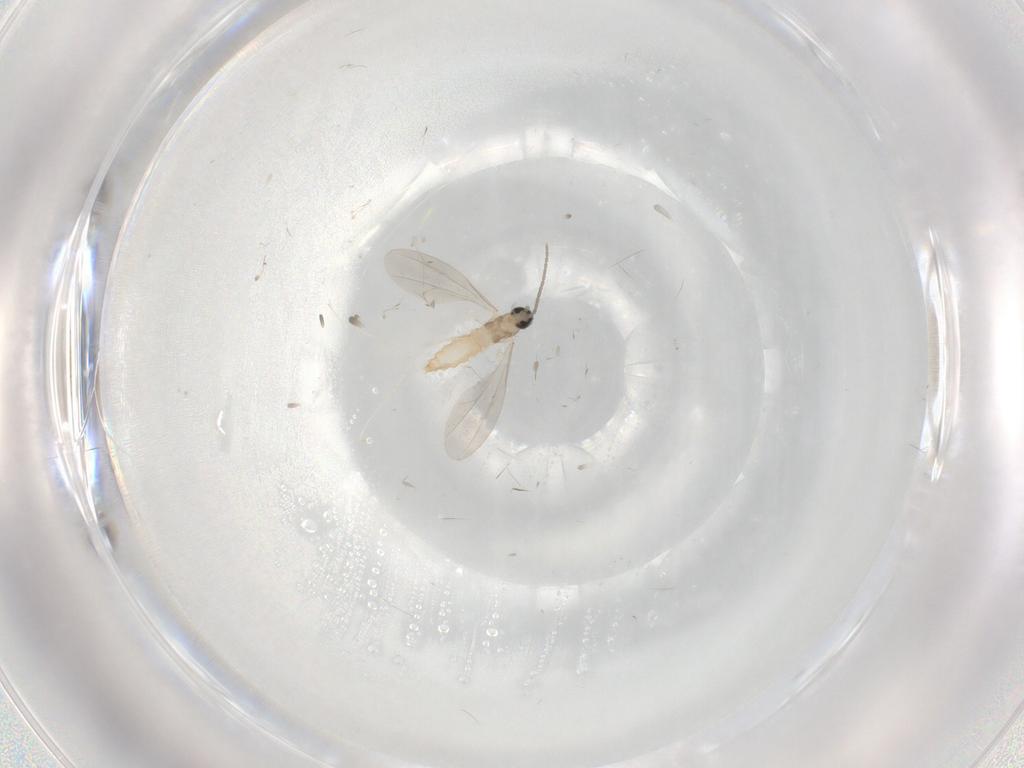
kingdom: Animalia
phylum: Arthropoda
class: Insecta
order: Diptera
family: Cecidomyiidae
